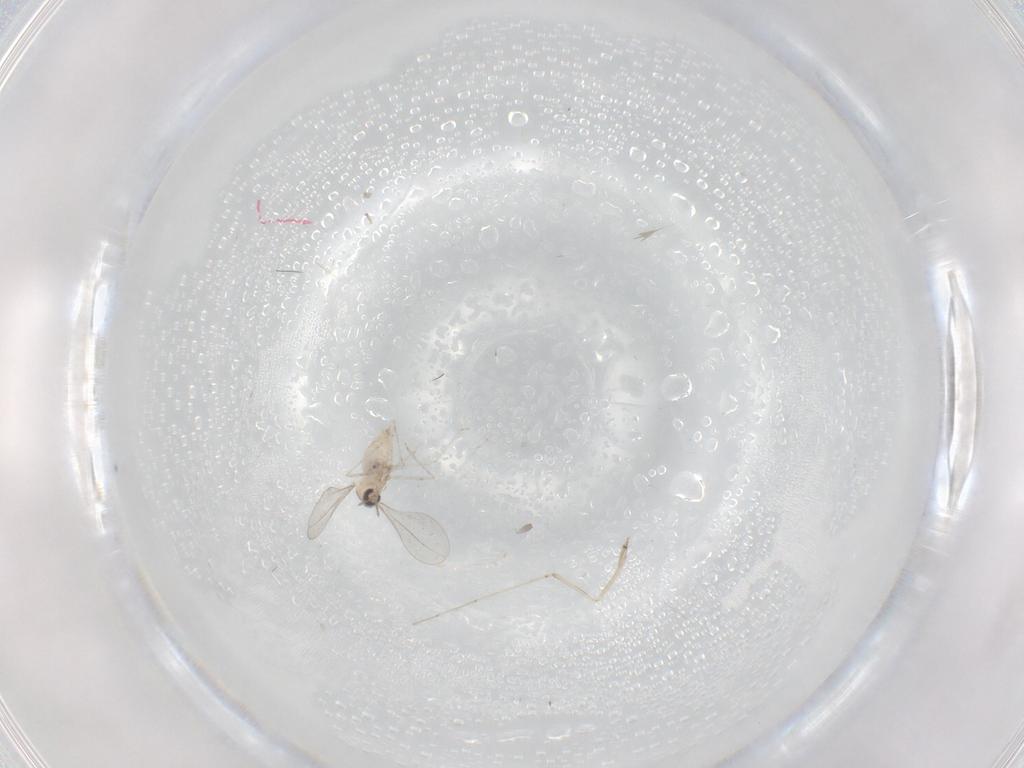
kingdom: Animalia
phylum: Arthropoda
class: Insecta
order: Diptera
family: Cecidomyiidae
